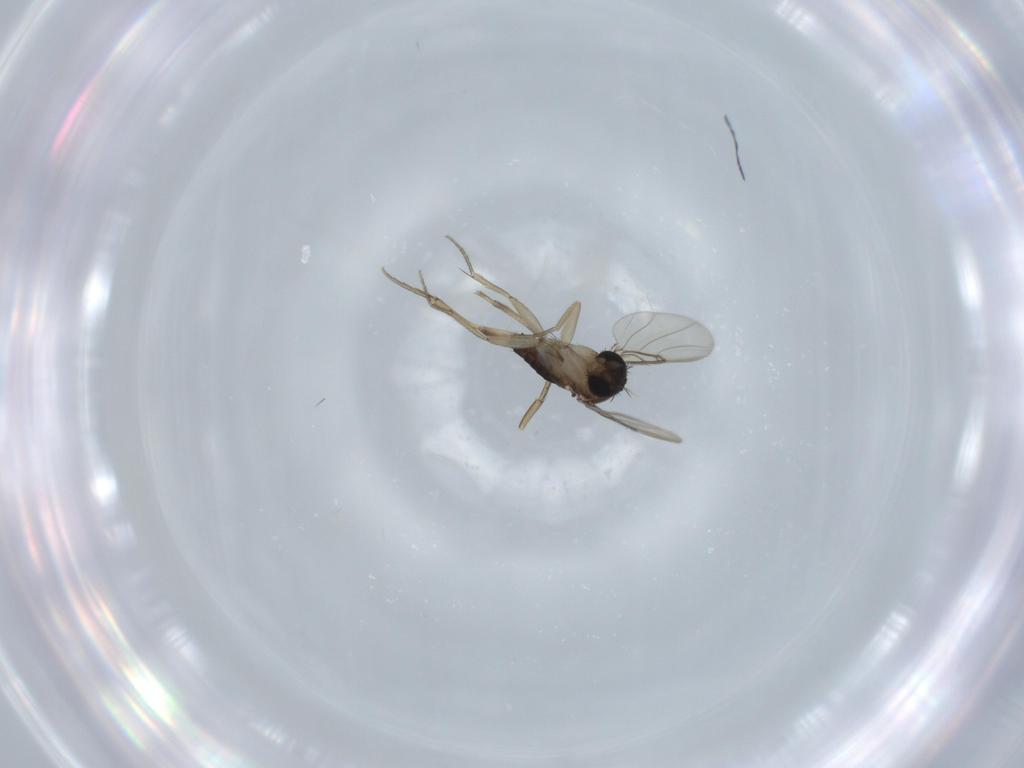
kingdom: Animalia
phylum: Arthropoda
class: Insecta
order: Diptera
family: Phoridae
